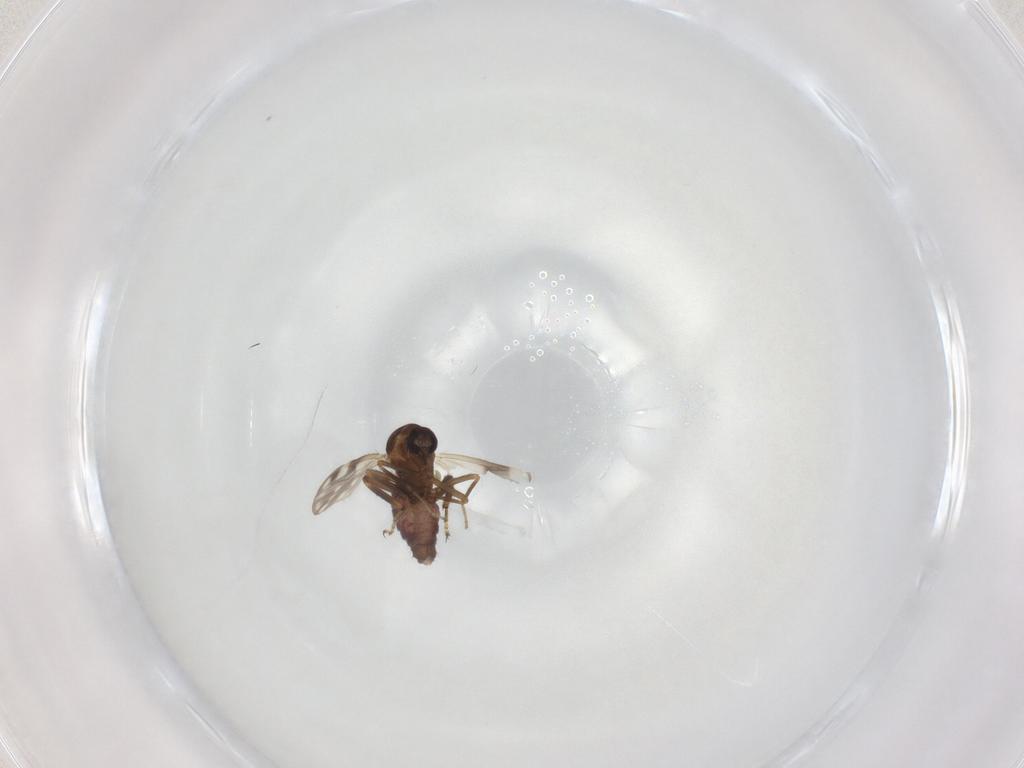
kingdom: Animalia
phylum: Arthropoda
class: Insecta
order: Diptera
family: Ceratopogonidae
